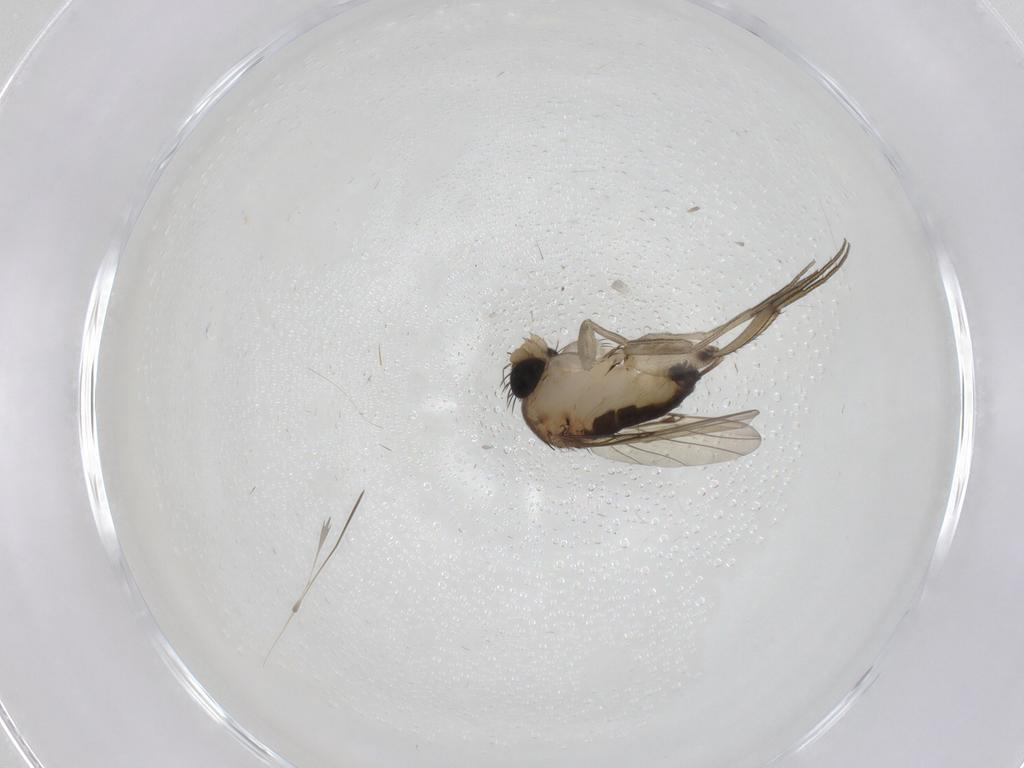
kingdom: Animalia
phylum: Arthropoda
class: Insecta
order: Diptera
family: Phoridae
